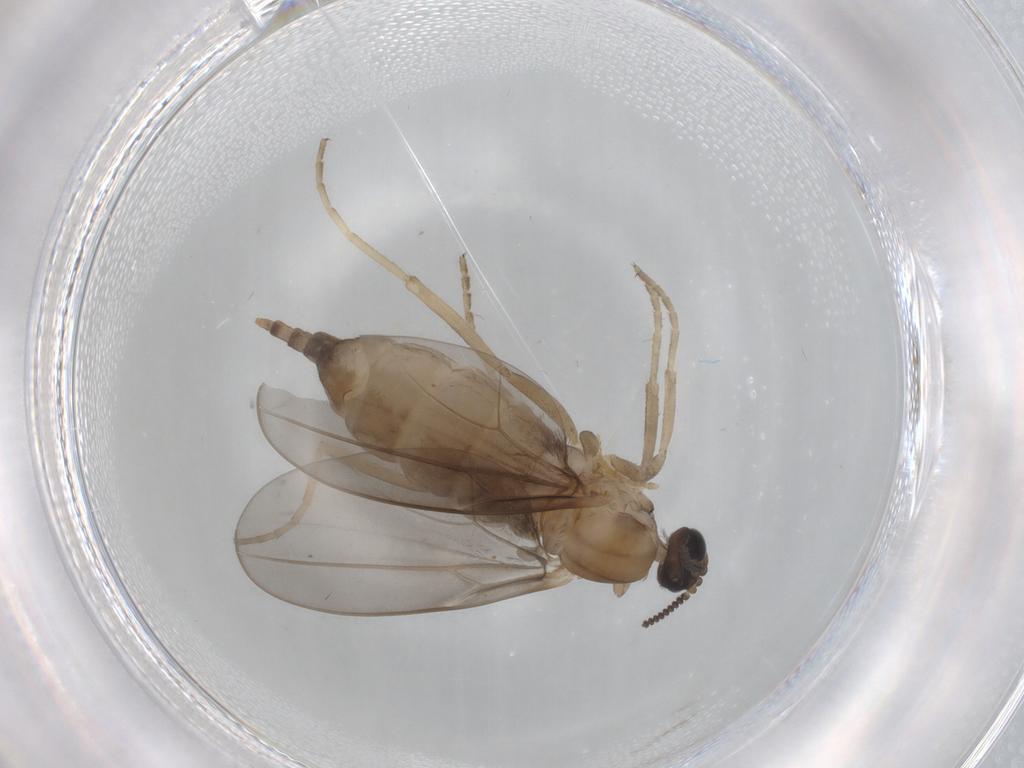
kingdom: Animalia
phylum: Arthropoda
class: Insecta
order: Diptera
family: Cecidomyiidae
